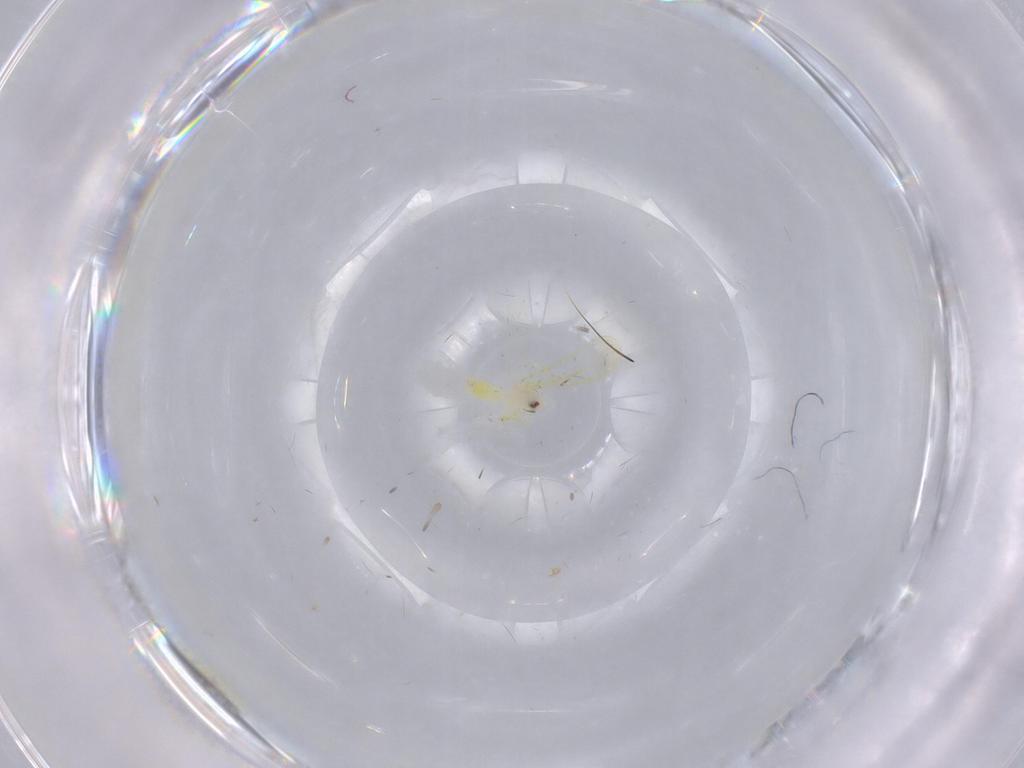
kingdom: Animalia
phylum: Arthropoda
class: Insecta
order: Hemiptera
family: Aleyrodidae
